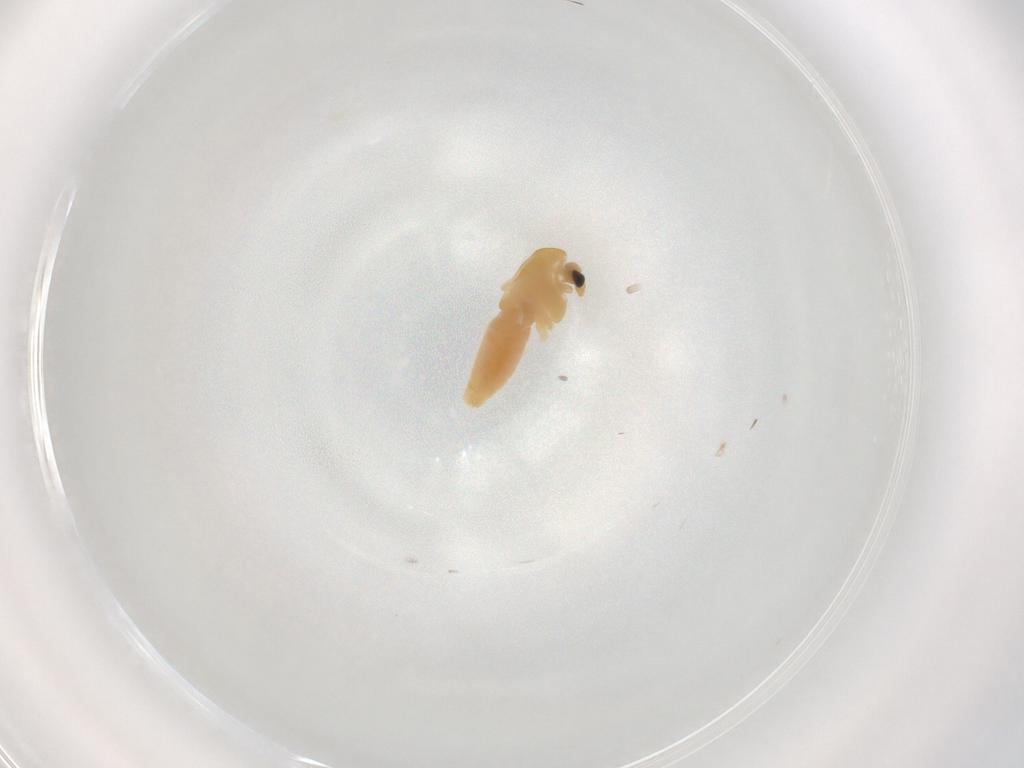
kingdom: Animalia
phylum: Arthropoda
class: Insecta
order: Diptera
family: Chironomidae
